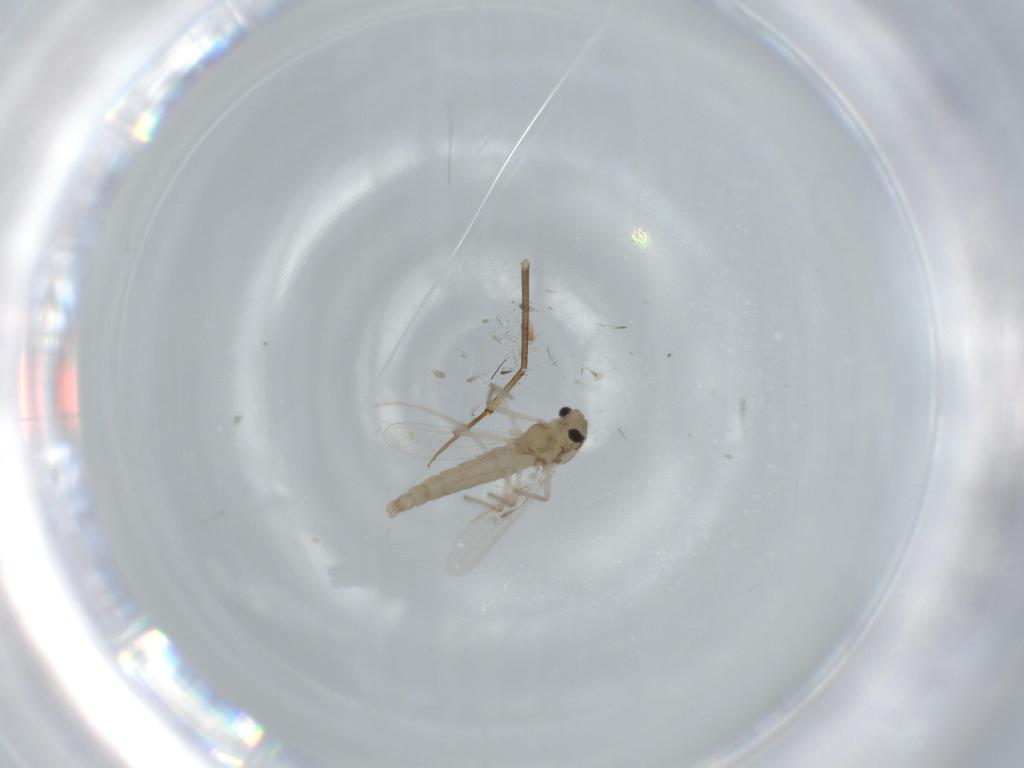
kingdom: Animalia
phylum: Arthropoda
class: Insecta
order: Diptera
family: Chironomidae
